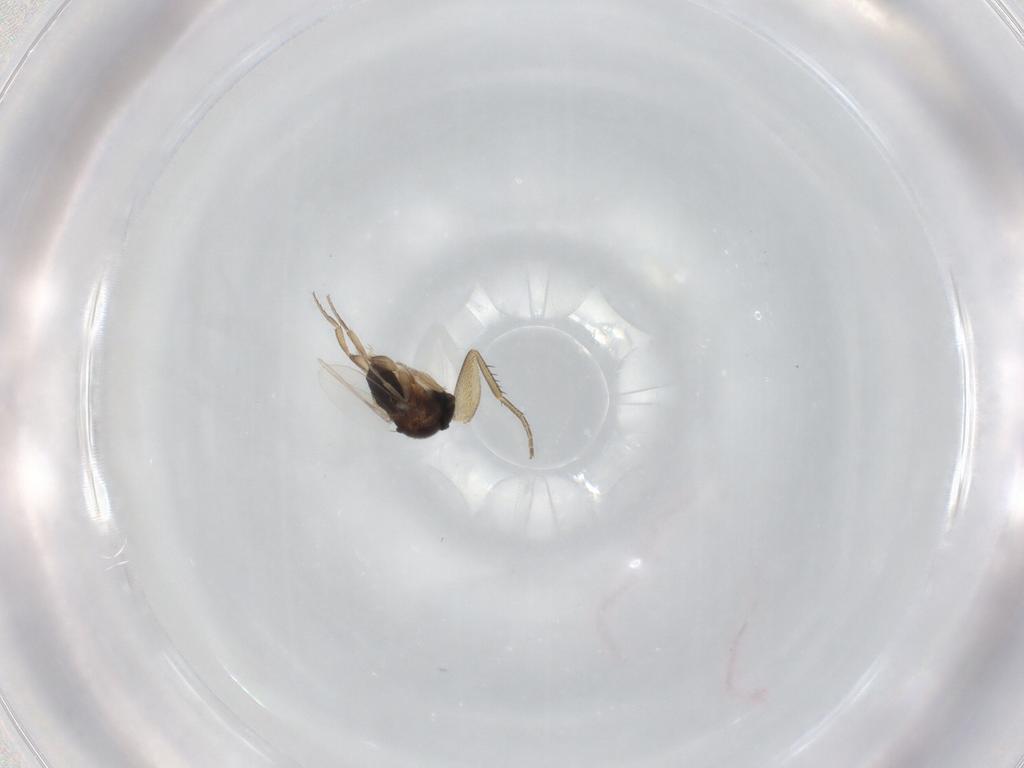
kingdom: Animalia
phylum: Arthropoda
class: Insecta
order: Diptera
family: Phoridae
